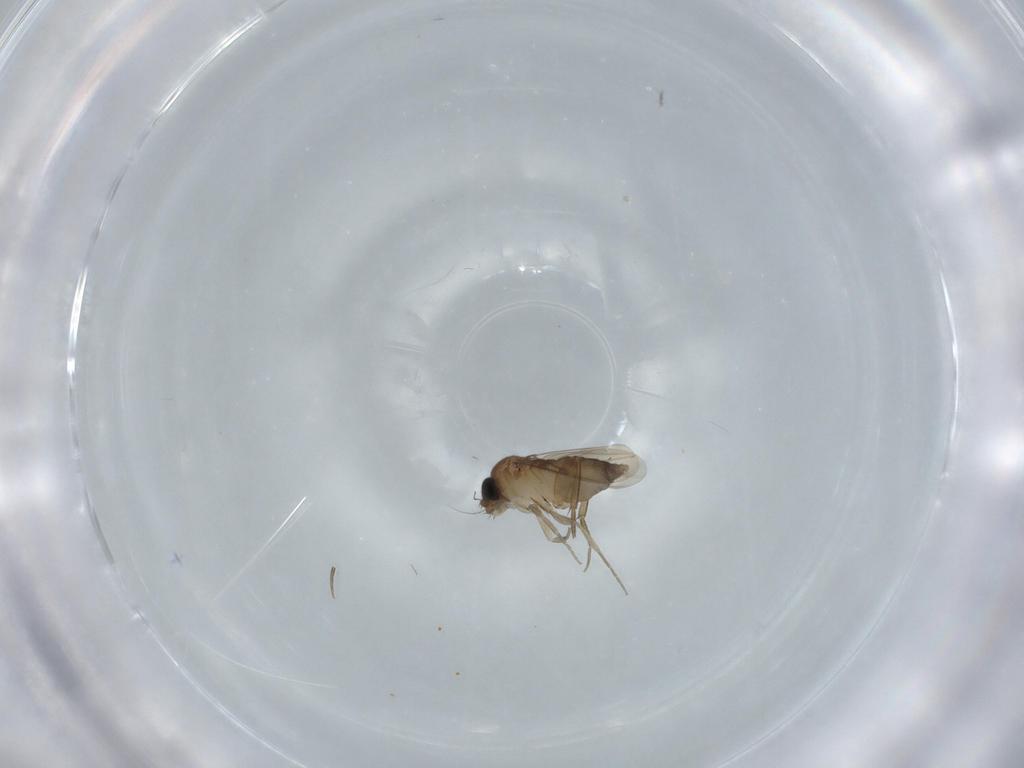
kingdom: Animalia
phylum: Arthropoda
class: Insecta
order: Diptera
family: Phoridae
